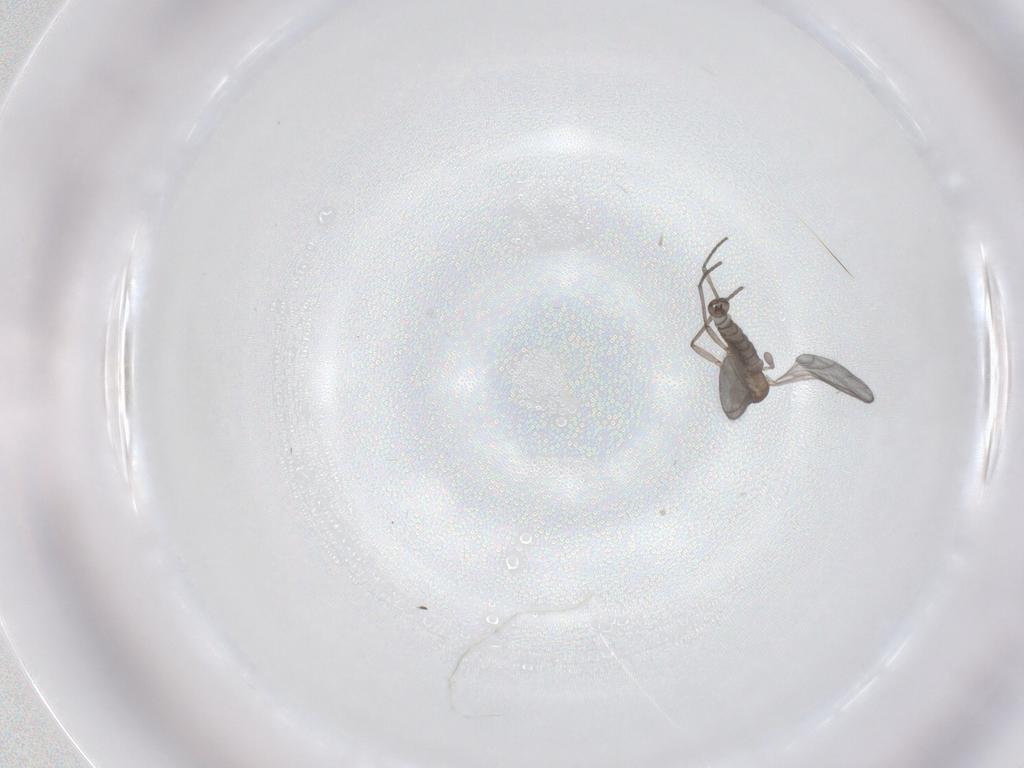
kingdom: Animalia
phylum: Arthropoda
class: Insecta
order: Diptera
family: Sciaridae
